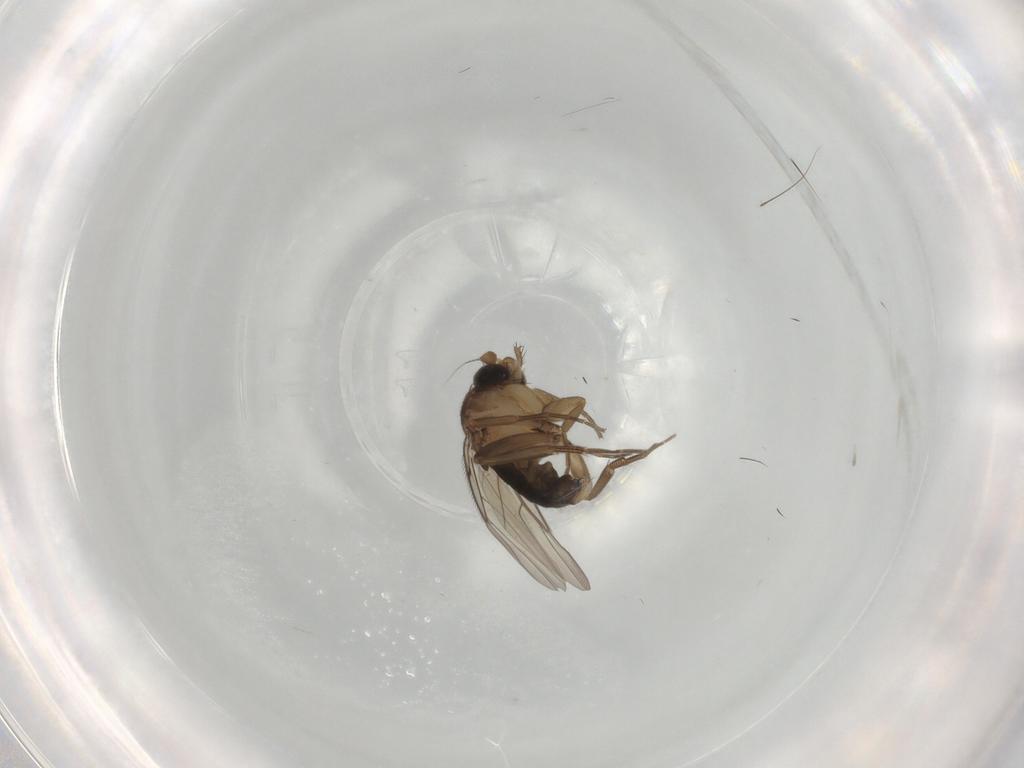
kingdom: Animalia
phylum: Arthropoda
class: Insecta
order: Diptera
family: Phoridae
